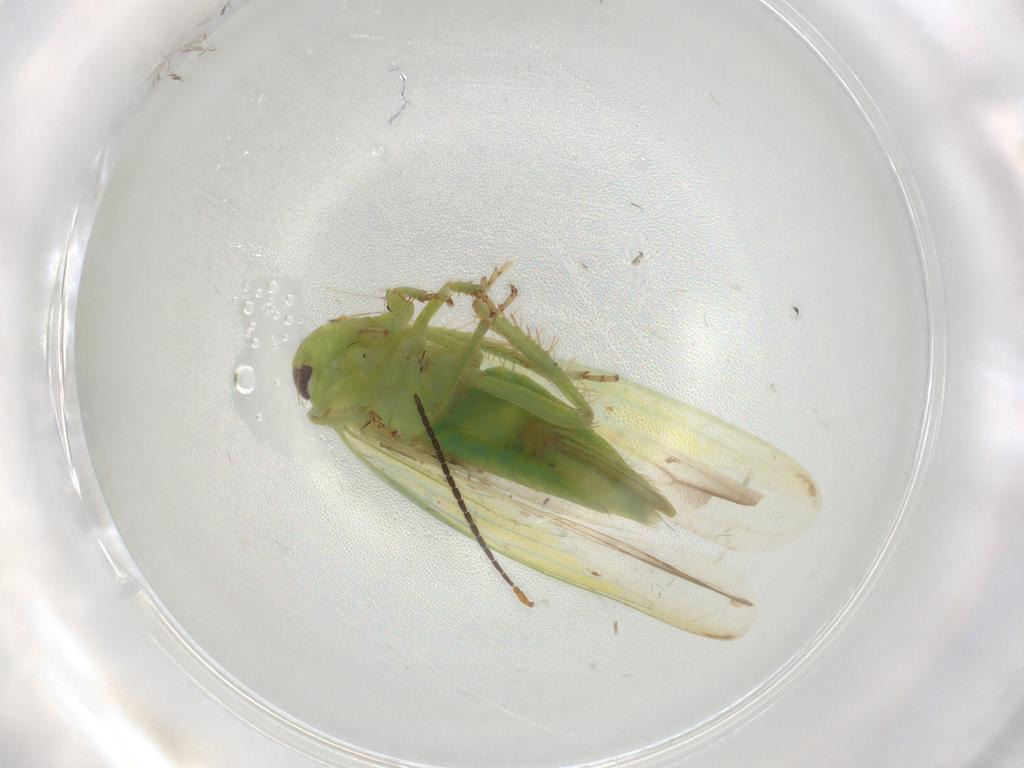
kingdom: Animalia
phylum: Arthropoda
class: Insecta
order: Hemiptera
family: Cicadellidae
